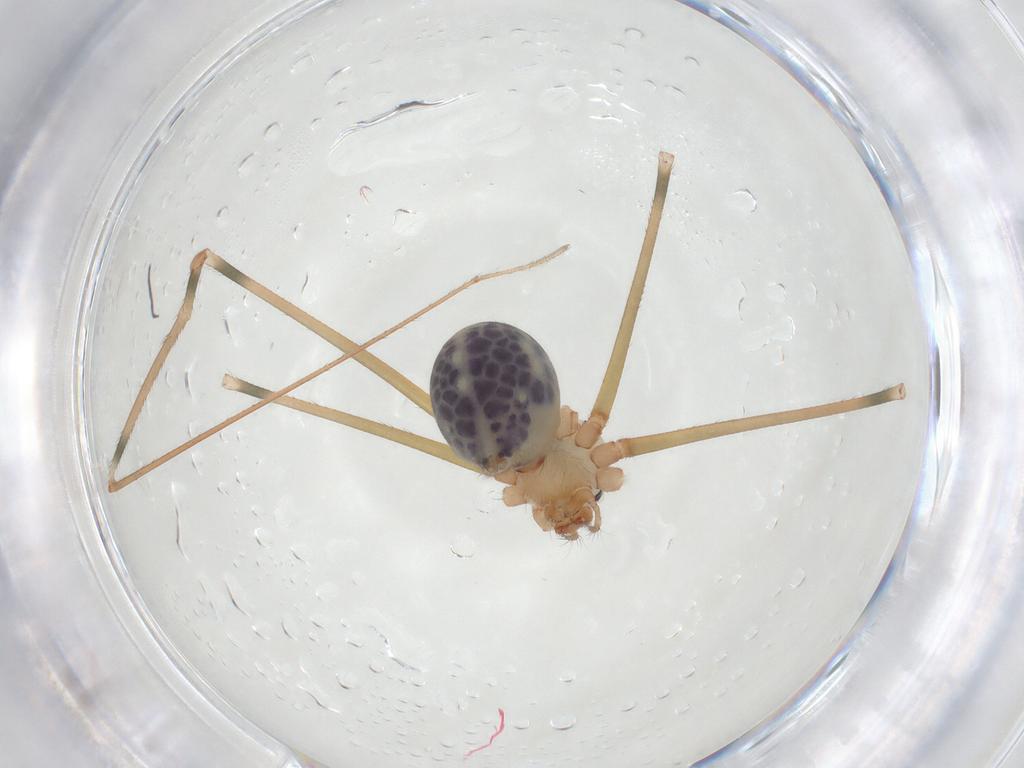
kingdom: Animalia
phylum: Arthropoda
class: Arachnida
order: Araneae
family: Pholcidae
